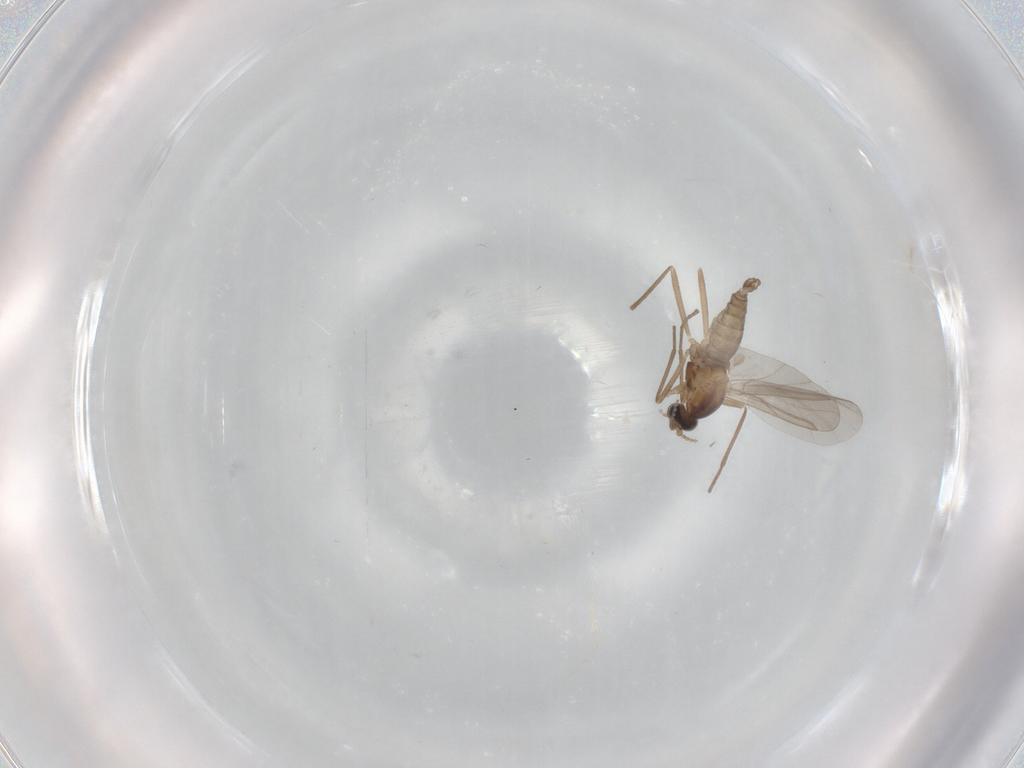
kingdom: Animalia
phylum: Arthropoda
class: Insecta
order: Diptera
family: Cecidomyiidae
